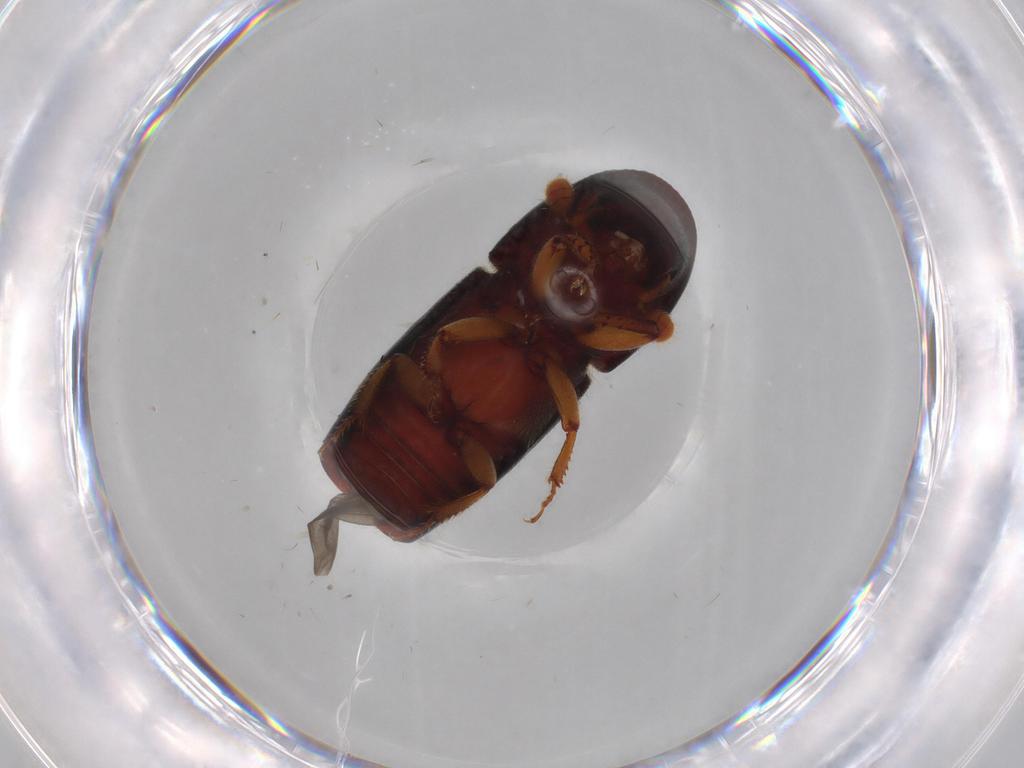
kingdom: Animalia
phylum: Arthropoda
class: Insecta
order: Coleoptera
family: Curculionidae
